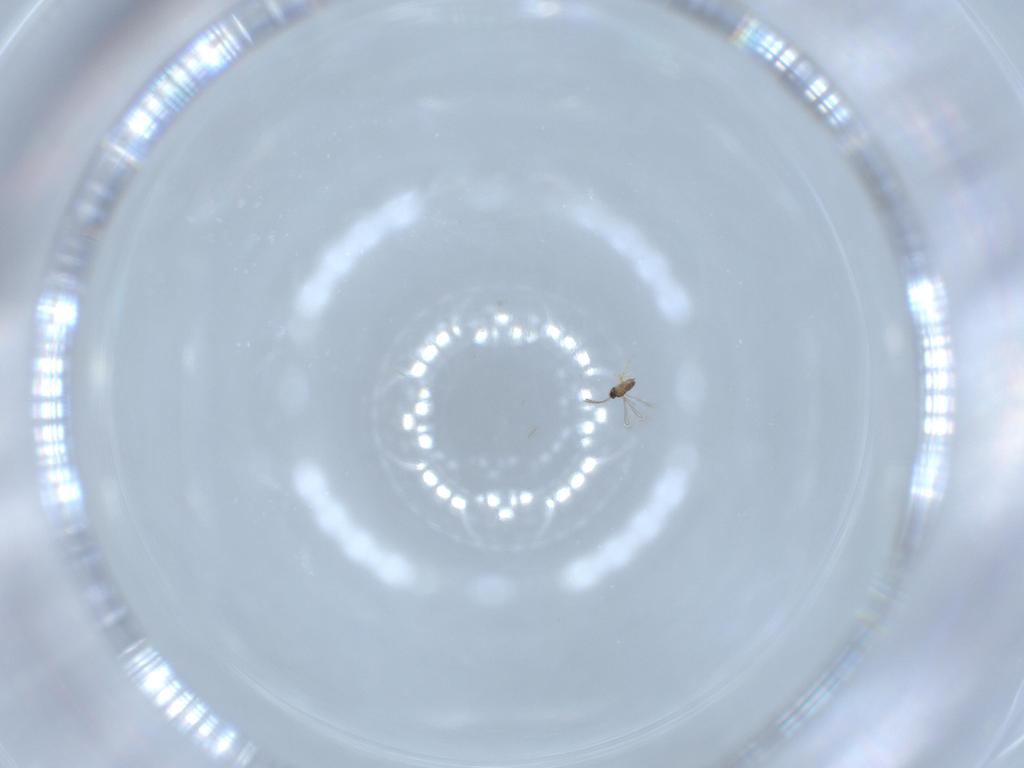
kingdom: Animalia
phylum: Arthropoda
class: Insecta
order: Hymenoptera
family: Mymaridae
